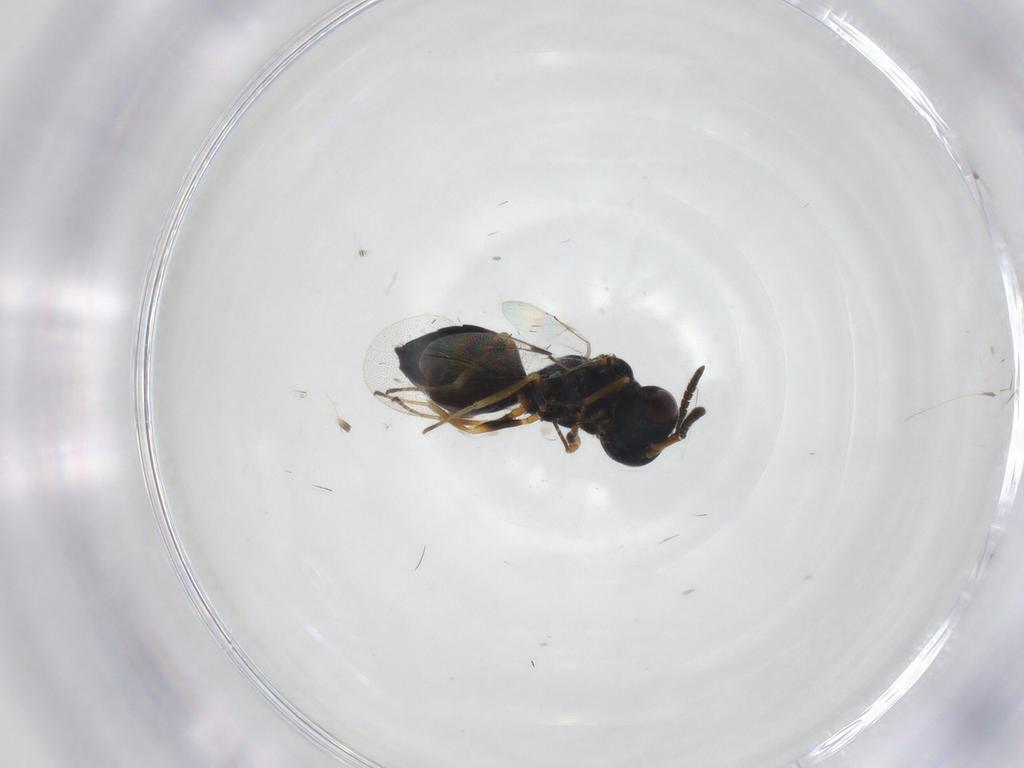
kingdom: Animalia
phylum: Arthropoda
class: Insecta
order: Hymenoptera
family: Pteromalidae
